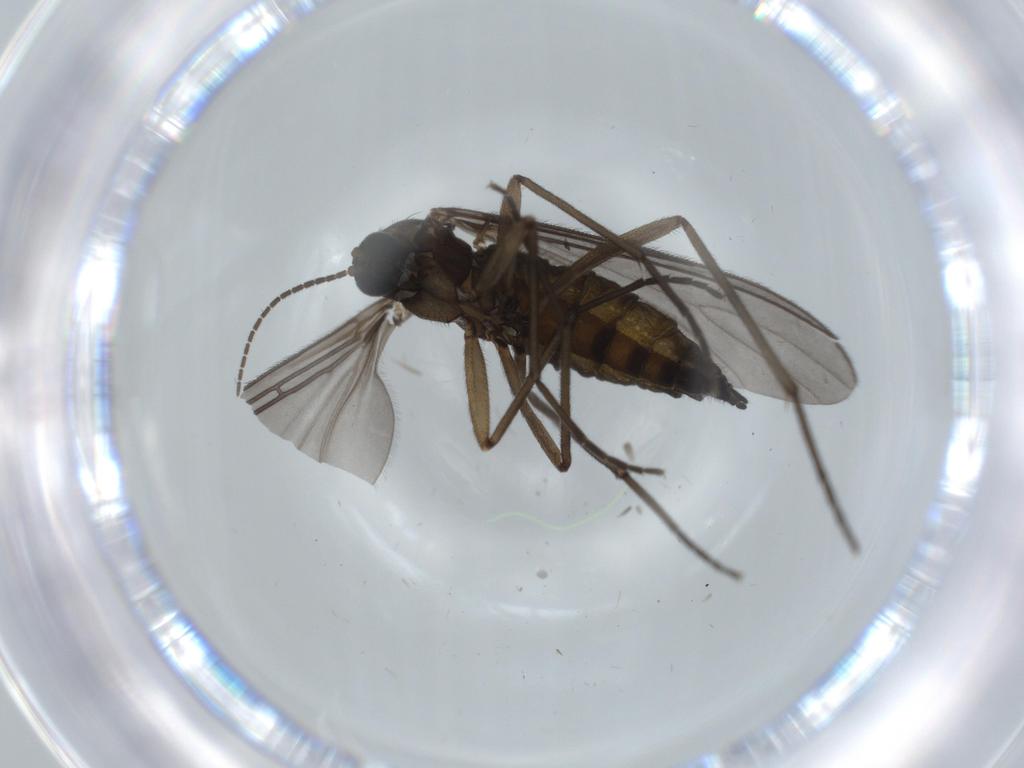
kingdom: Animalia
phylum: Arthropoda
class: Insecta
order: Diptera
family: Sciaridae
